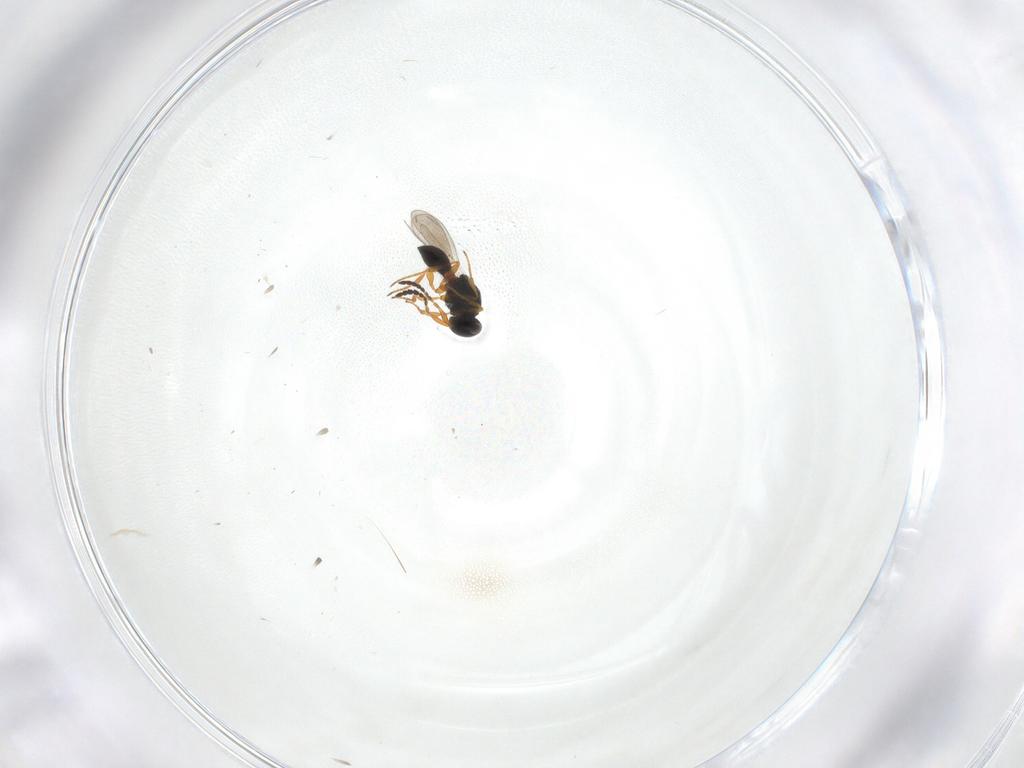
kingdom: Animalia
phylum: Arthropoda
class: Insecta
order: Hymenoptera
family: Platygastridae
